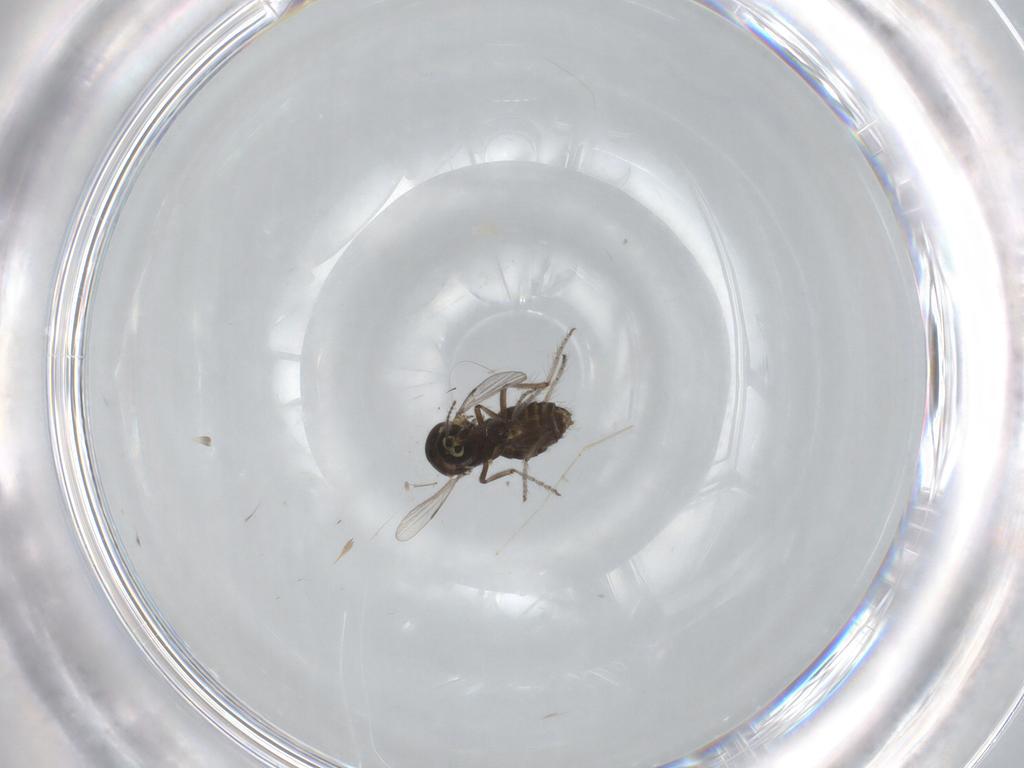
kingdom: Animalia
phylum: Arthropoda
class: Insecta
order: Diptera
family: Ceratopogonidae
